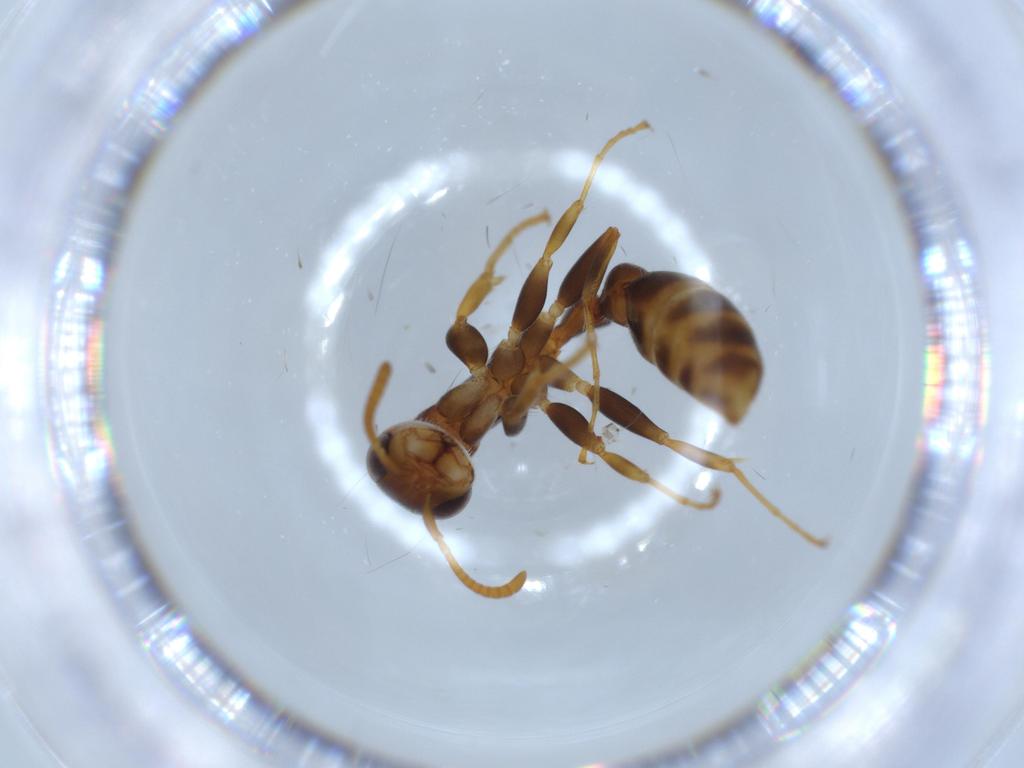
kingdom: Animalia
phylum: Arthropoda
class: Insecta
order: Hymenoptera
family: Formicidae
